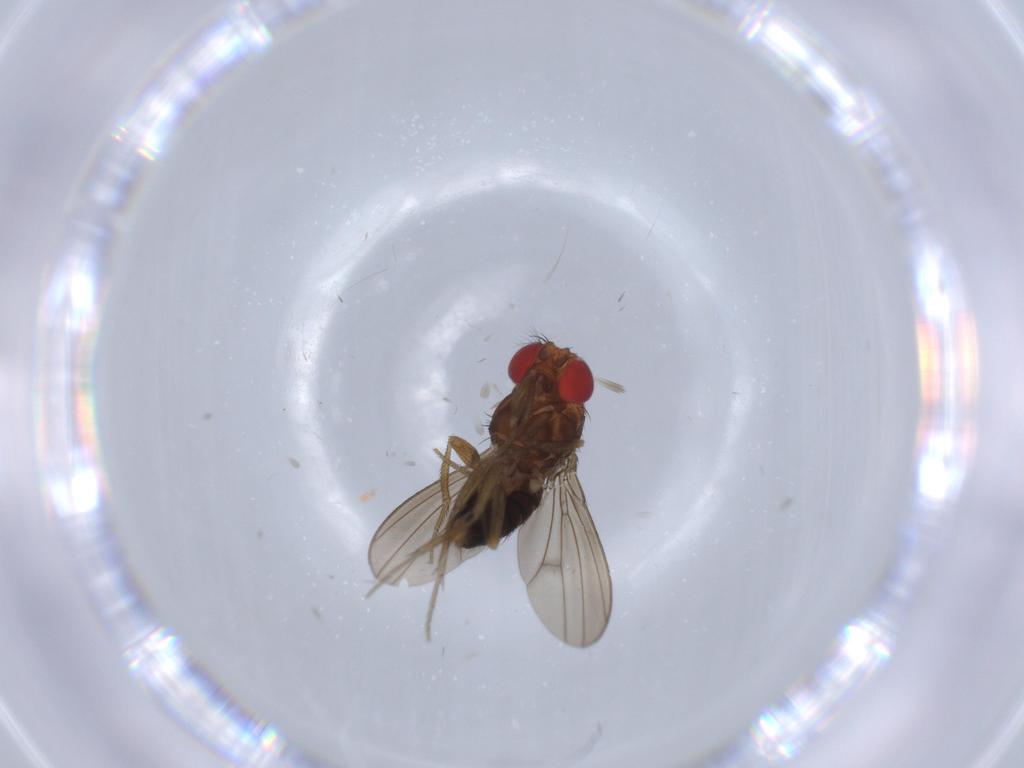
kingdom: Animalia
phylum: Arthropoda
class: Insecta
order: Diptera
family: Drosophilidae
